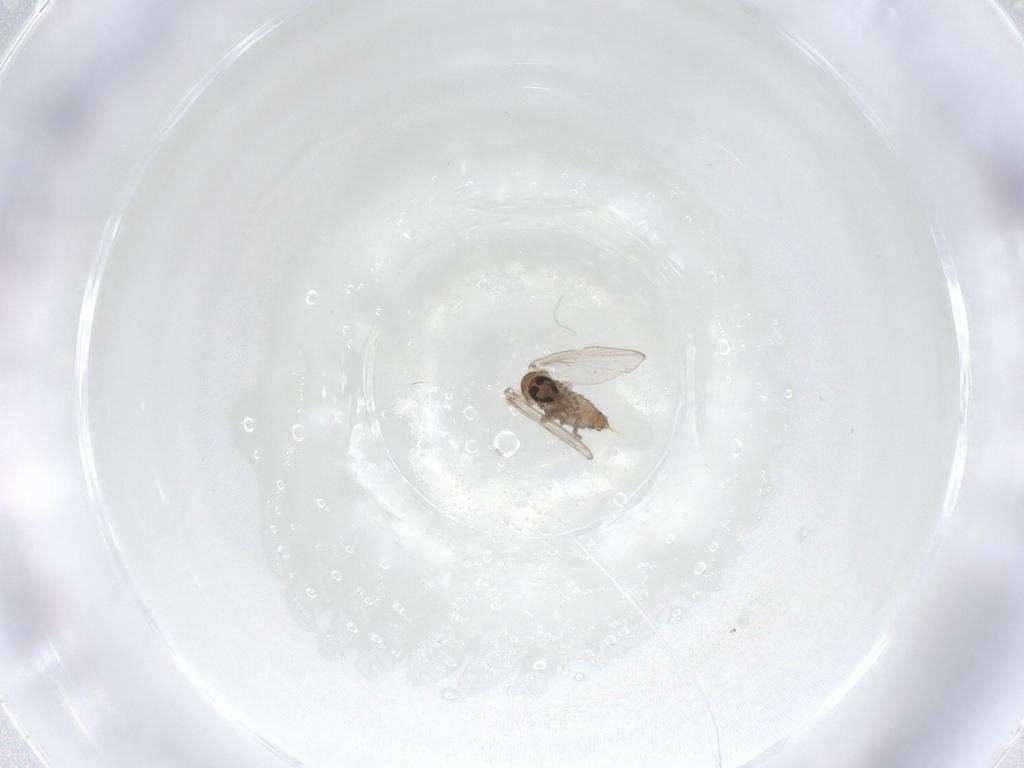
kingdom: Animalia
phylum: Arthropoda
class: Insecta
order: Diptera
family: Psychodidae
